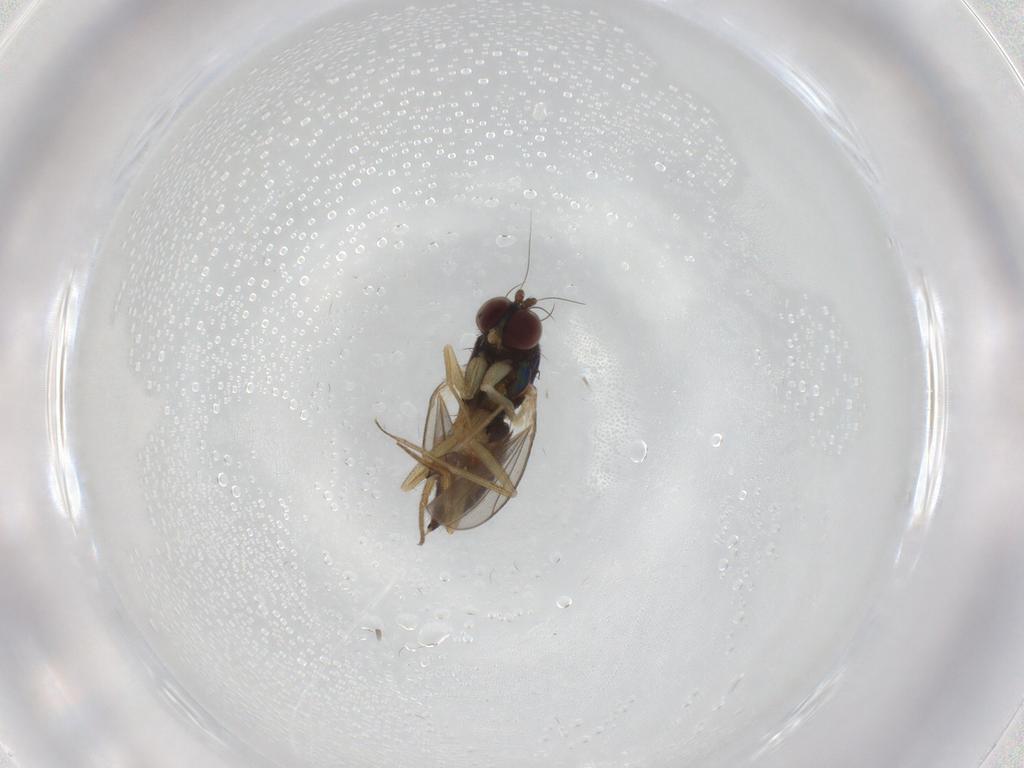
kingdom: Animalia
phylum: Arthropoda
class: Insecta
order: Diptera
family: Dolichopodidae
